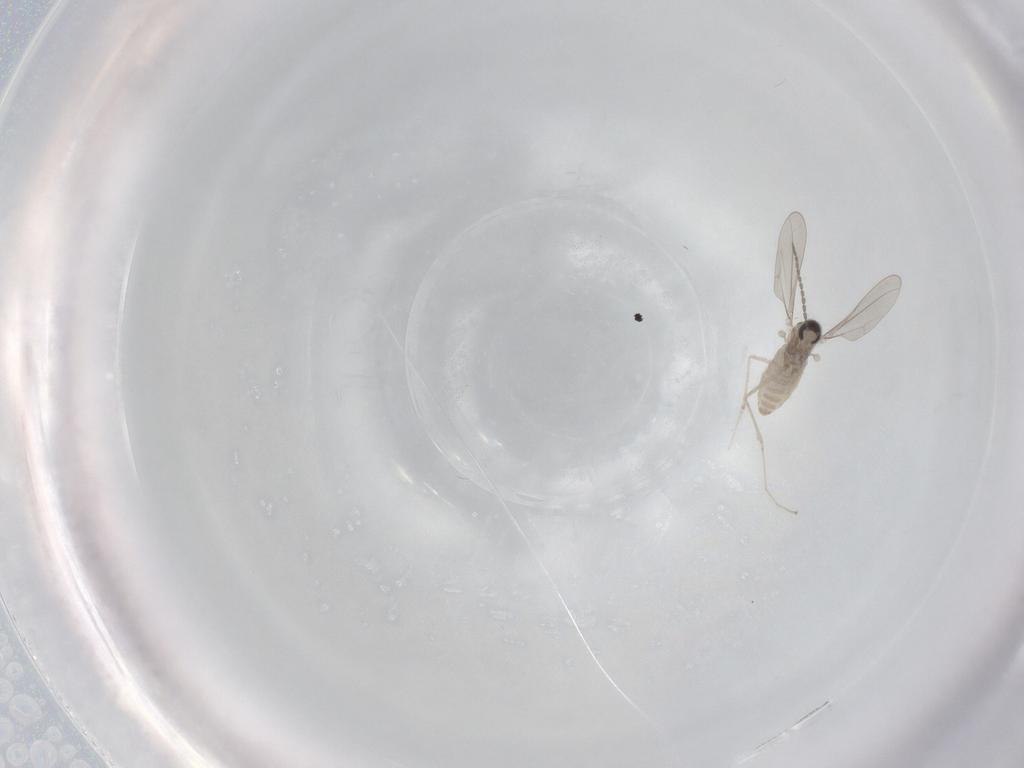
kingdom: Animalia
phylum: Arthropoda
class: Insecta
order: Diptera
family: Cecidomyiidae
